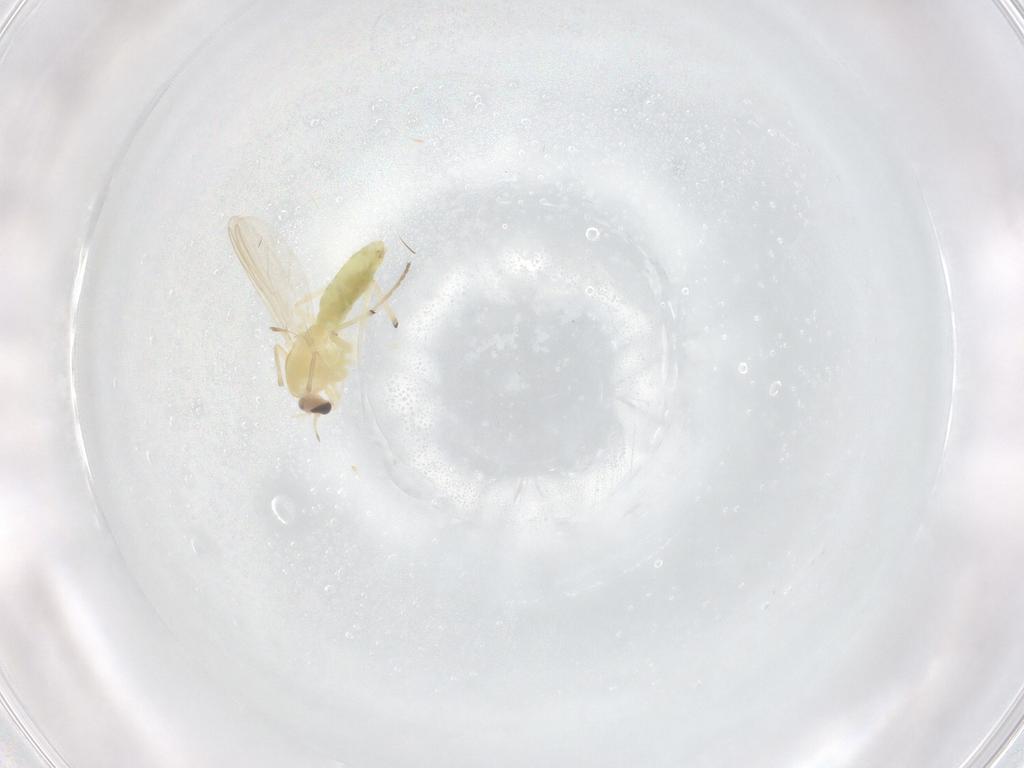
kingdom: Animalia
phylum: Arthropoda
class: Insecta
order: Diptera
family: Chironomidae
